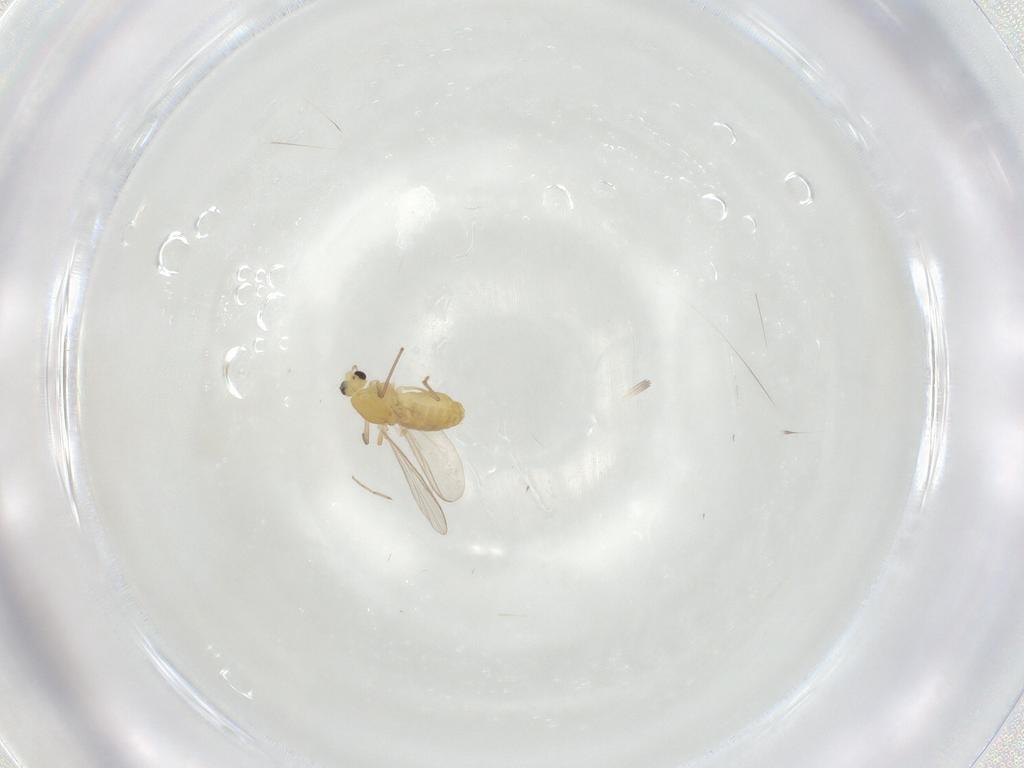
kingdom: Animalia
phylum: Arthropoda
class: Insecta
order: Diptera
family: Chironomidae
